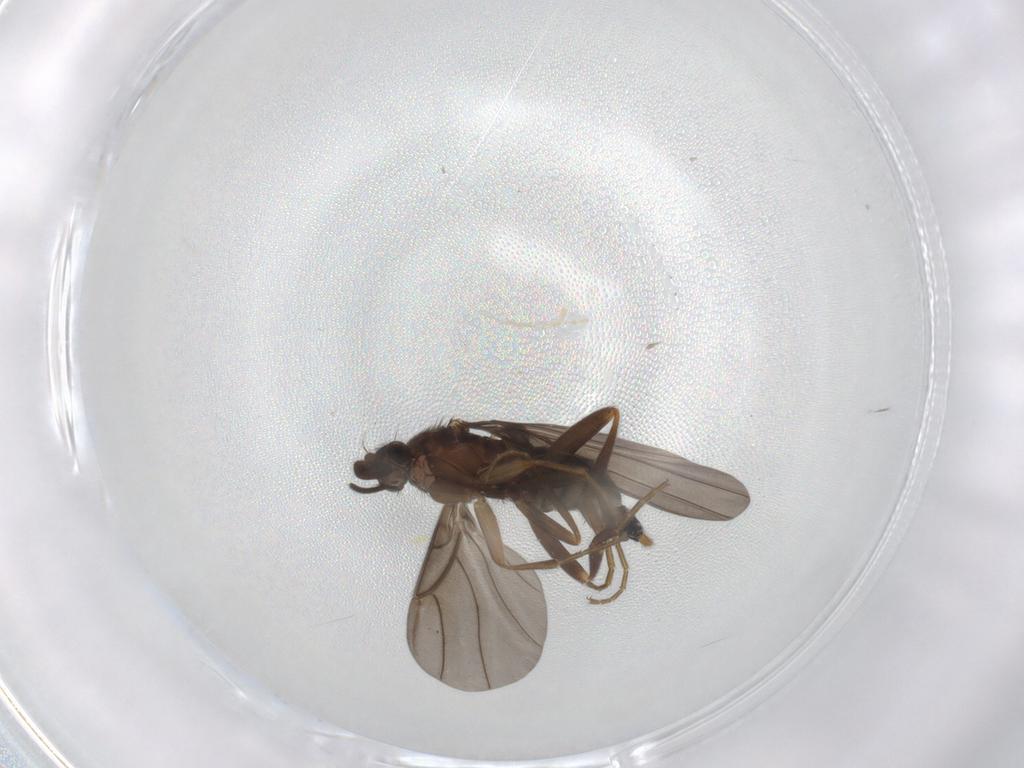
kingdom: Animalia
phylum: Arthropoda
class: Insecta
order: Diptera
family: Phoridae
